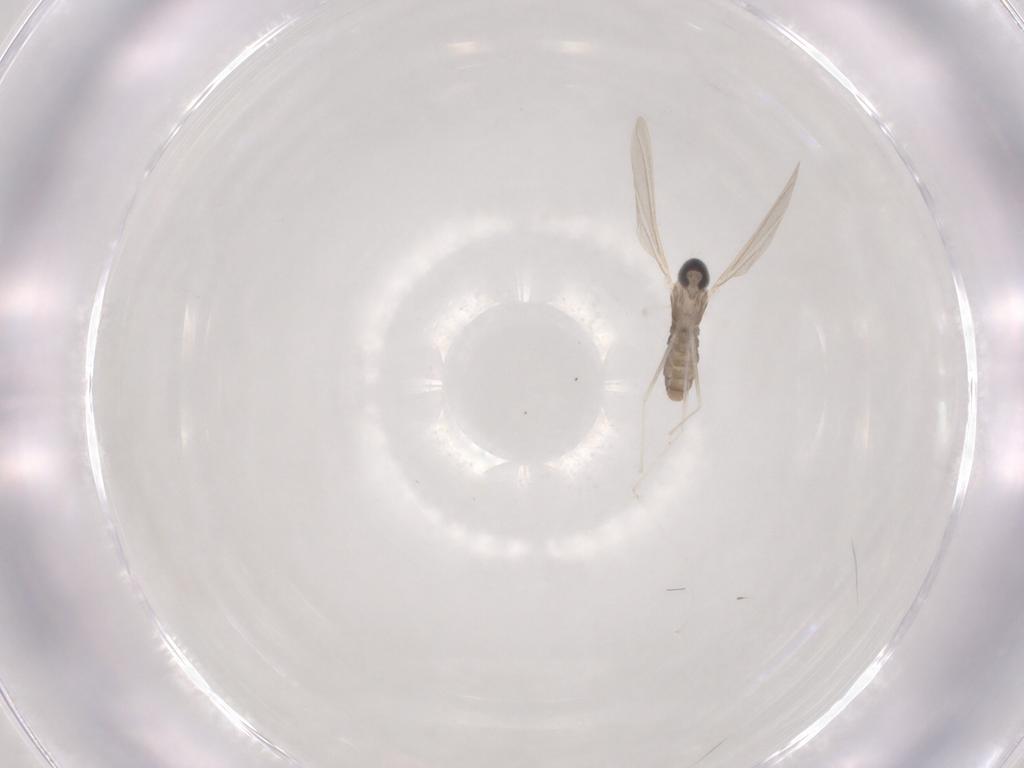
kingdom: Animalia
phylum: Arthropoda
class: Insecta
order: Diptera
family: Cecidomyiidae
